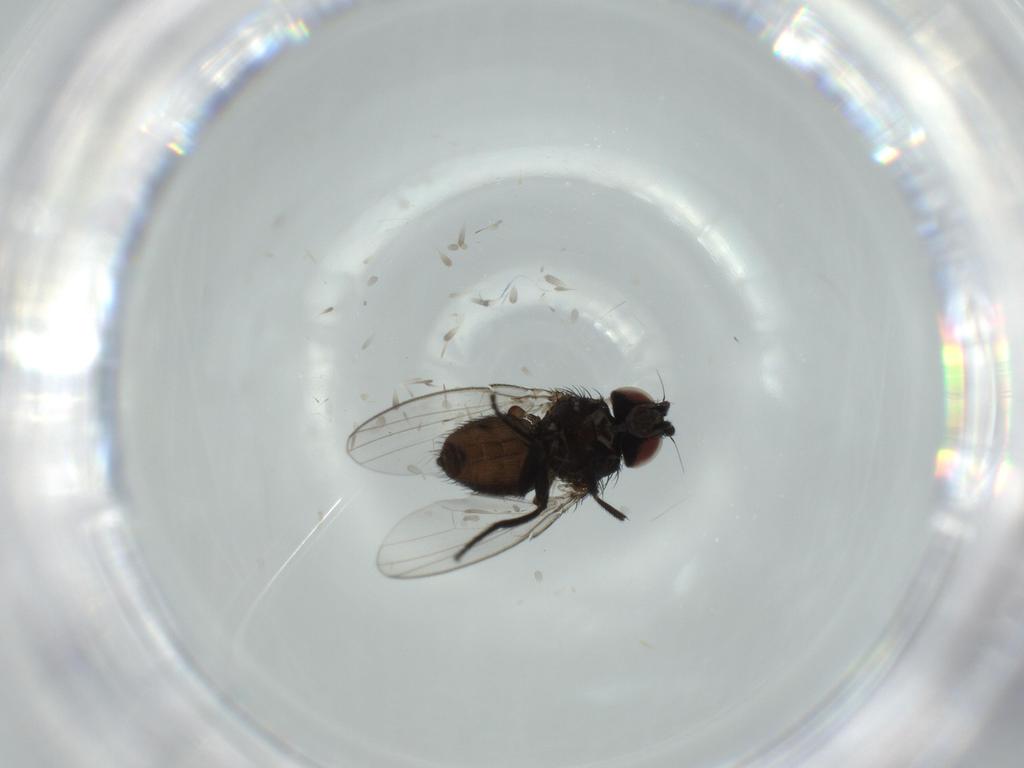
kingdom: Animalia
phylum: Arthropoda
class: Insecta
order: Diptera
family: Milichiidae
